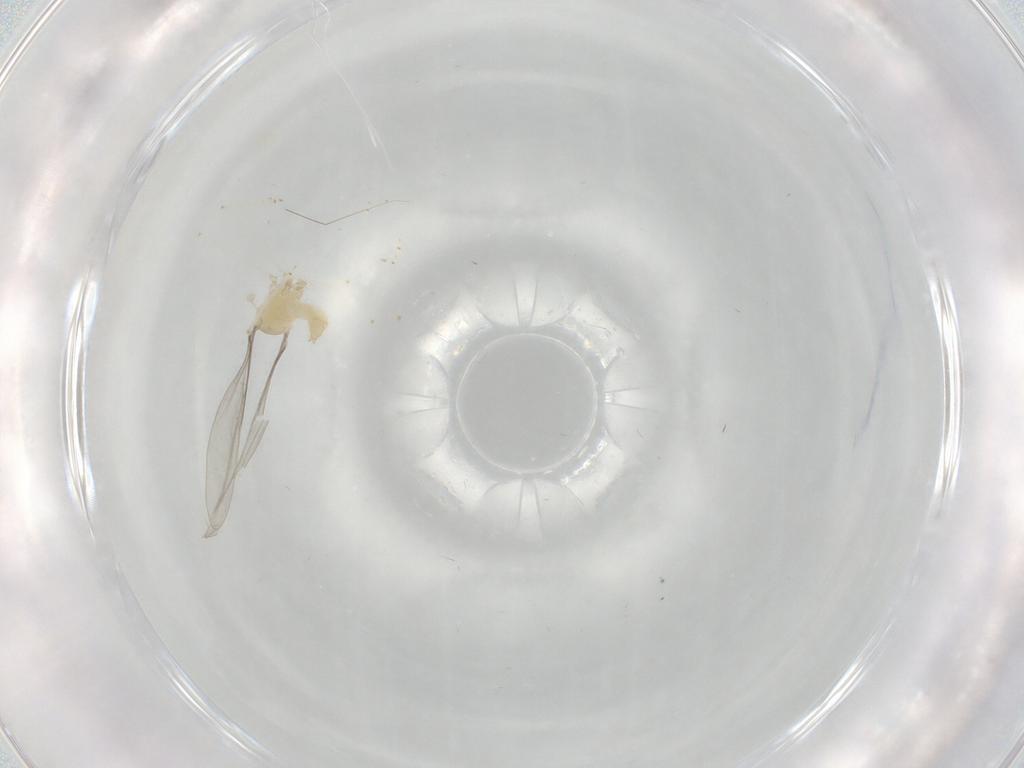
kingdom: Animalia
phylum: Arthropoda
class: Insecta
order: Diptera
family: Cecidomyiidae
